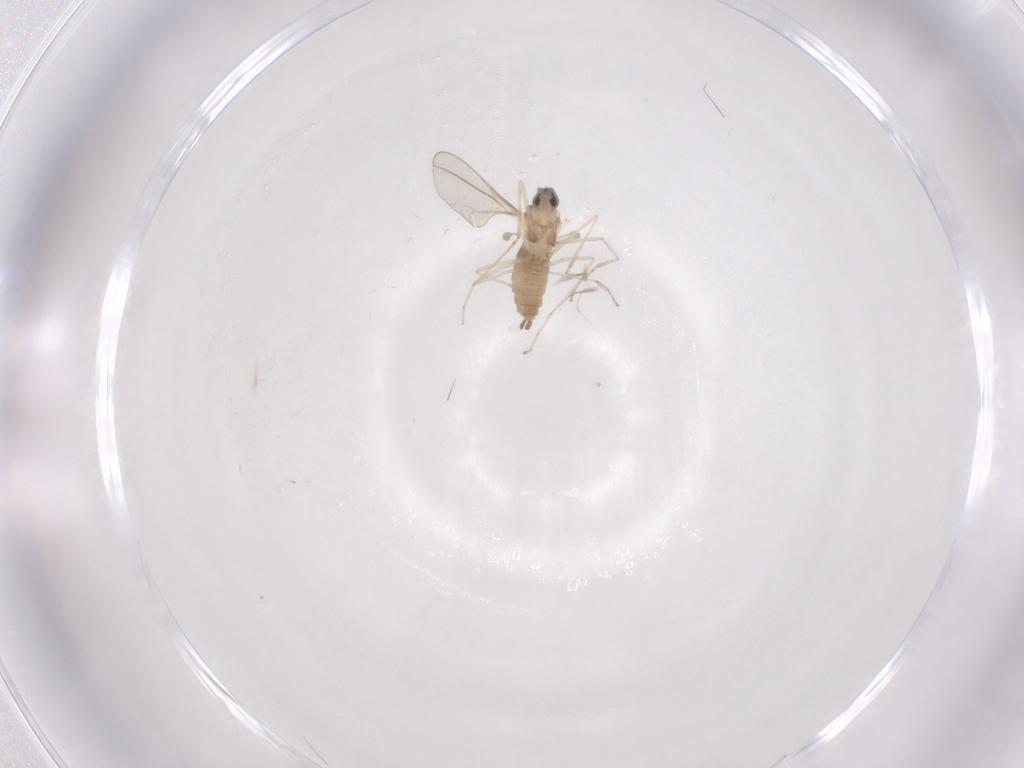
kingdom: Animalia
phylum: Arthropoda
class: Insecta
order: Diptera
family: Cecidomyiidae
